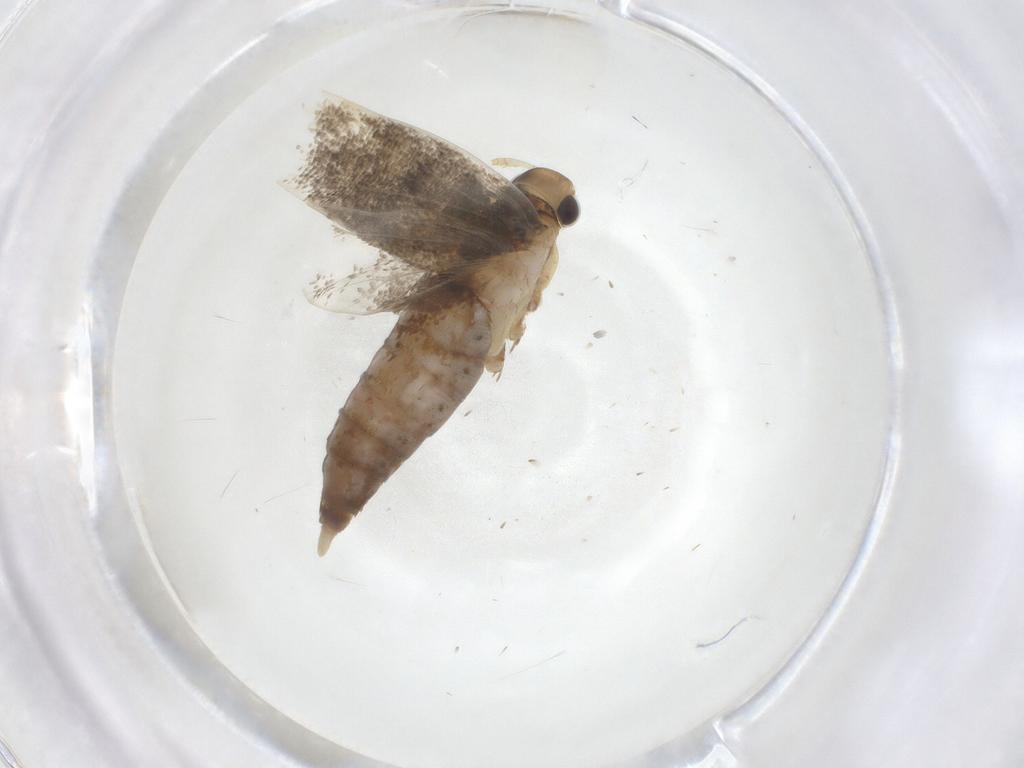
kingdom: Animalia
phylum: Arthropoda
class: Insecta
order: Lepidoptera
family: Lecithoceridae
